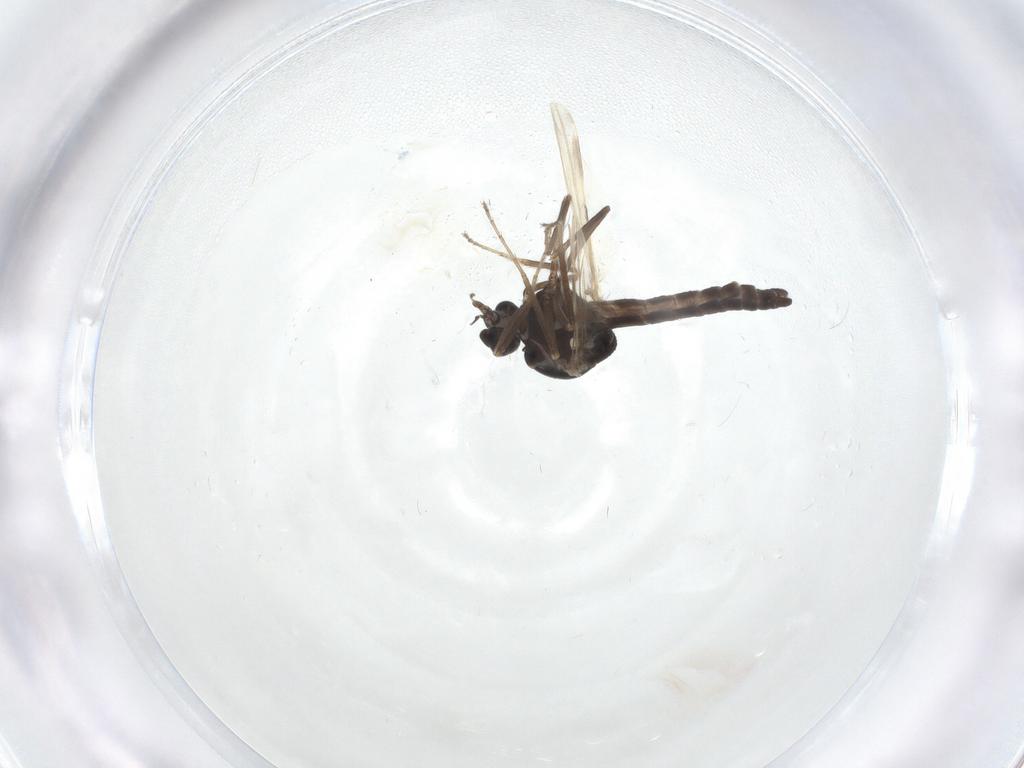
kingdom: Animalia
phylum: Arthropoda
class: Insecta
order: Diptera
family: Ceratopogonidae
